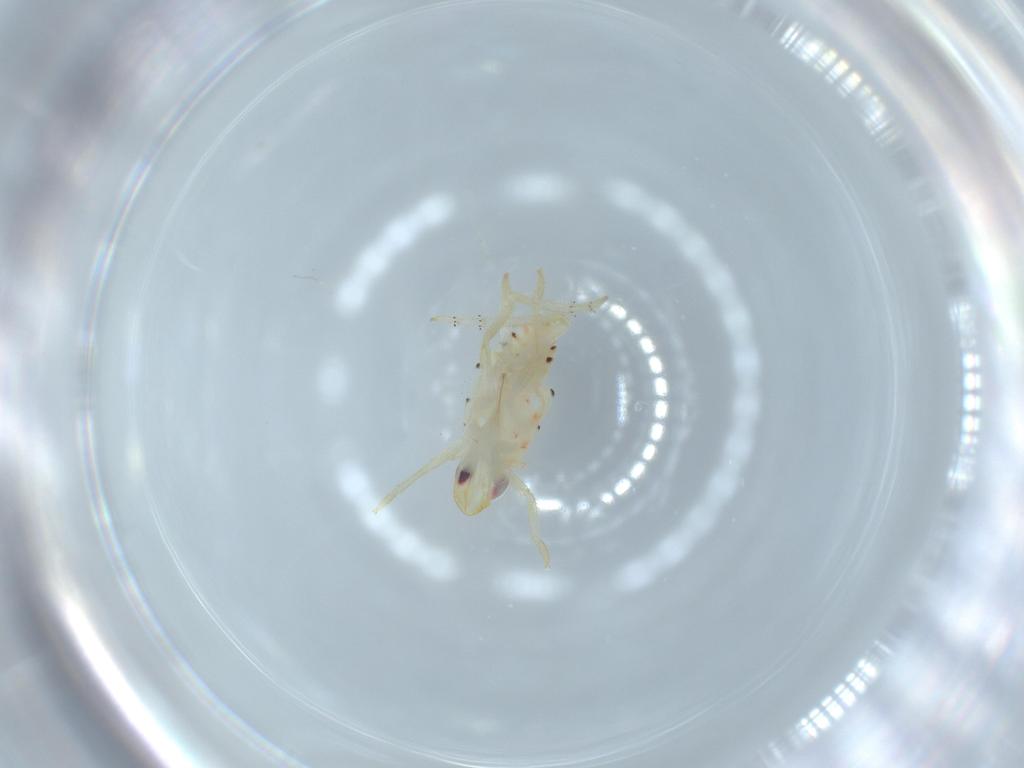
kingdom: Animalia
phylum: Arthropoda
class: Insecta
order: Hemiptera
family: Tropiduchidae
